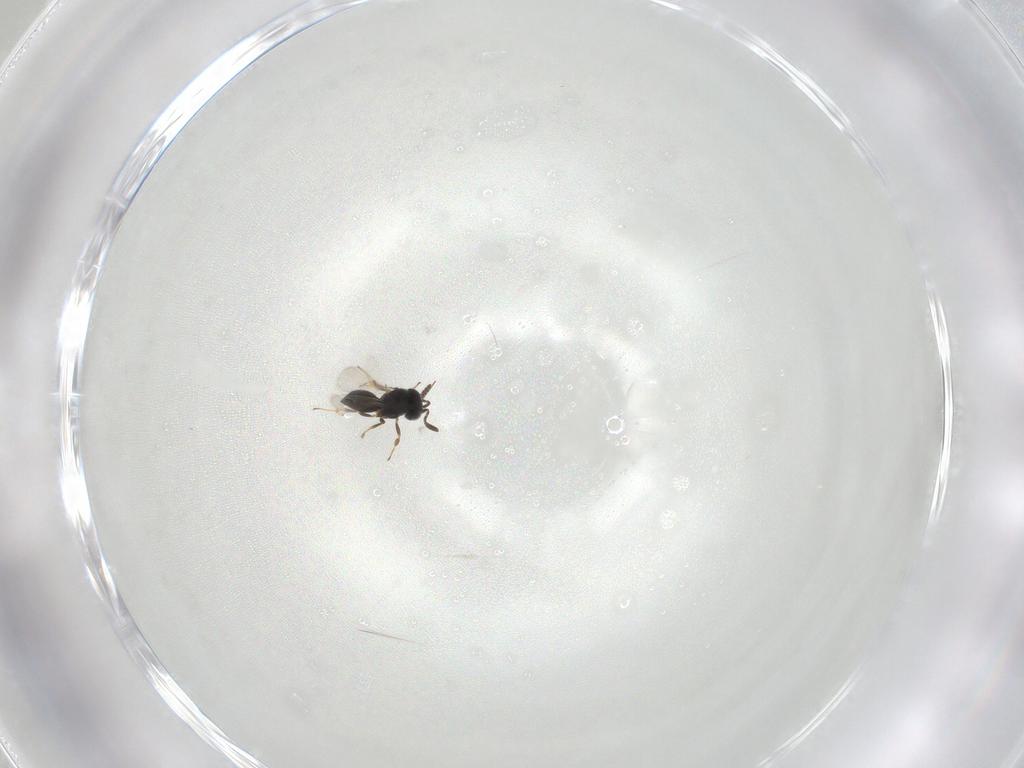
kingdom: Animalia
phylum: Arthropoda
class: Insecta
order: Hymenoptera
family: Scelionidae
